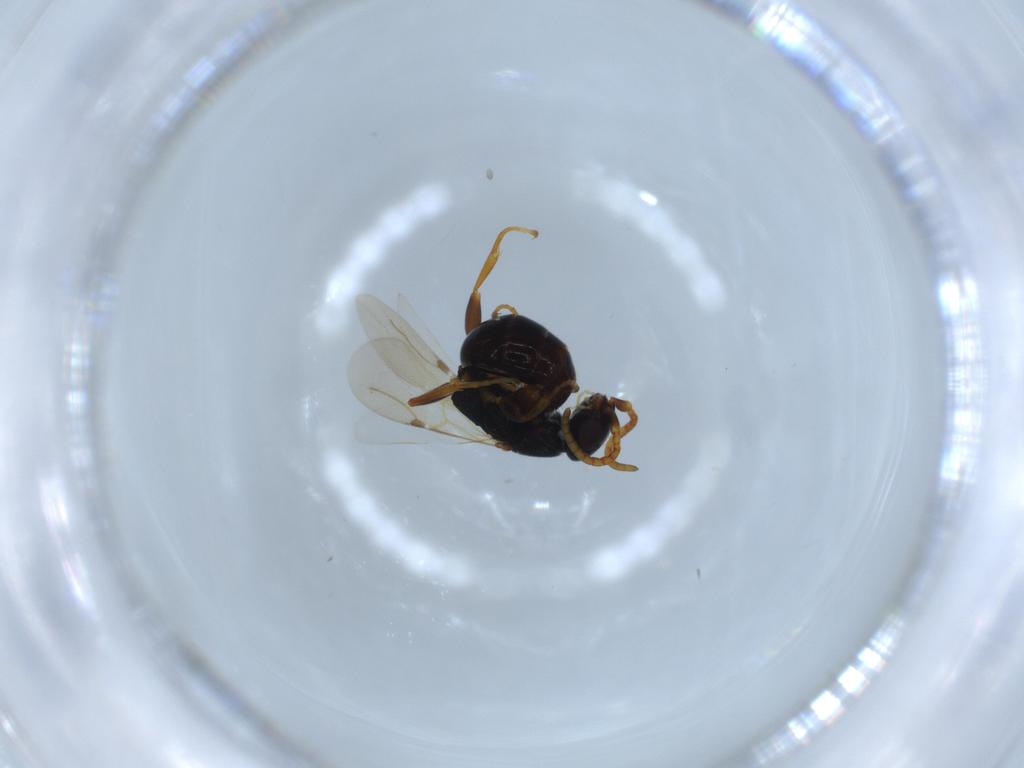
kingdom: Animalia
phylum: Arthropoda
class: Insecta
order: Hymenoptera
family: Bethylidae
